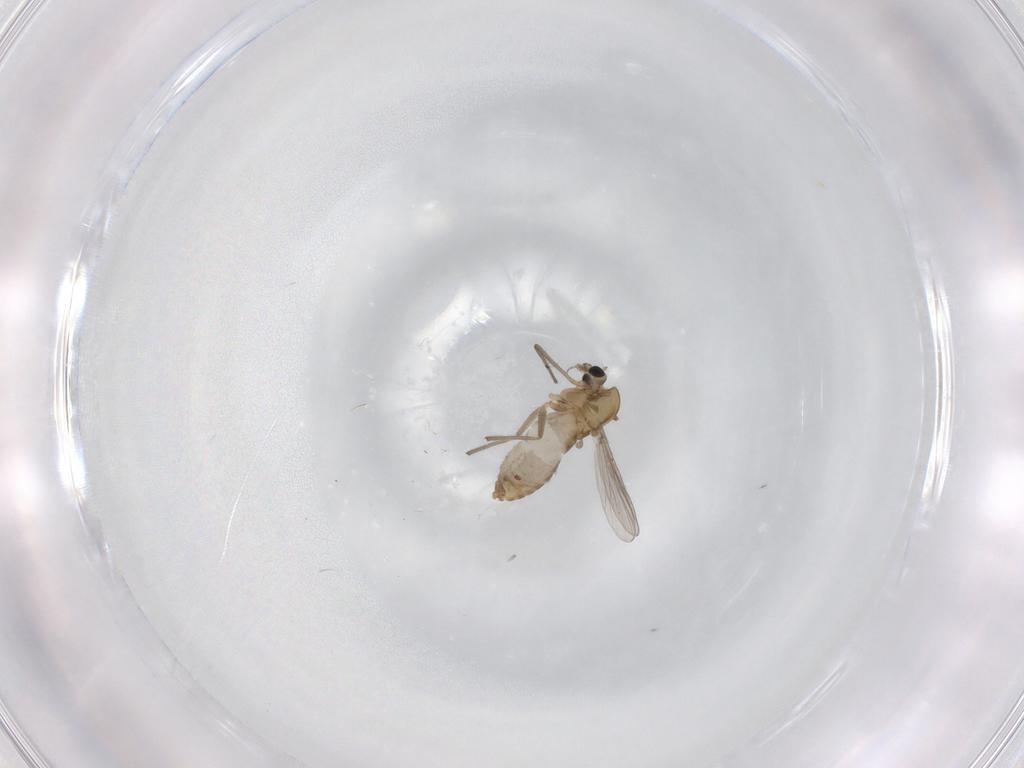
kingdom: Animalia
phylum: Arthropoda
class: Insecta
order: Diptera
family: Chironomidae
